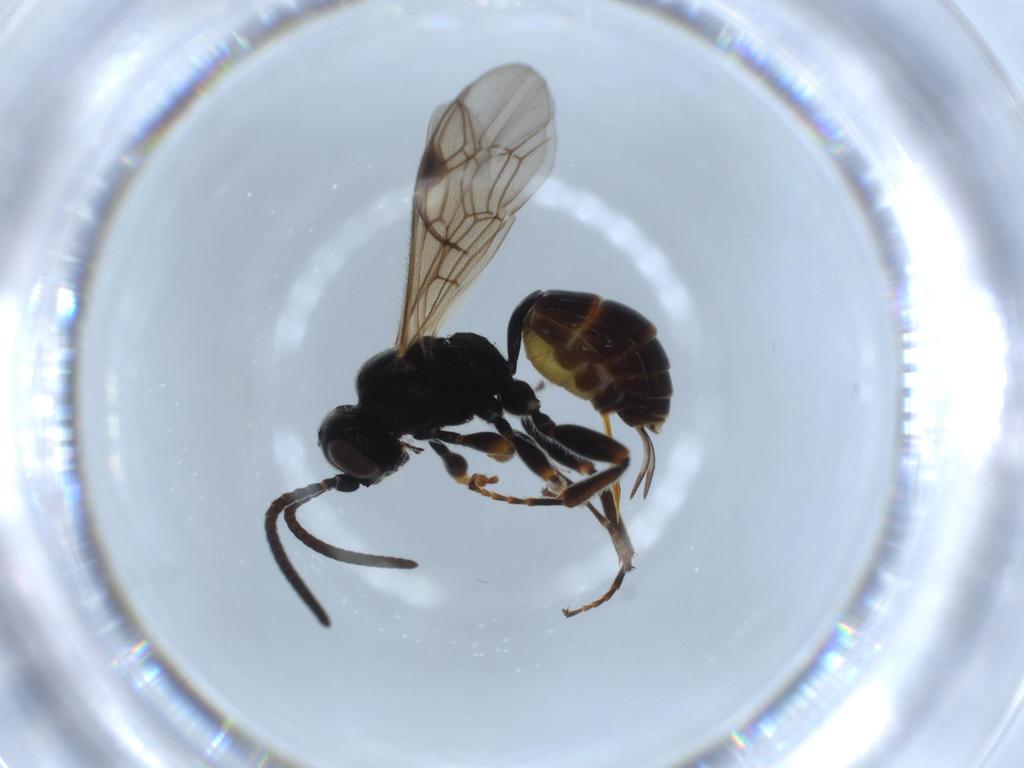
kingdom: Animalia
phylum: Arthropoda
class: Insecta
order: Hymenoptera
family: Ichneumonidae
